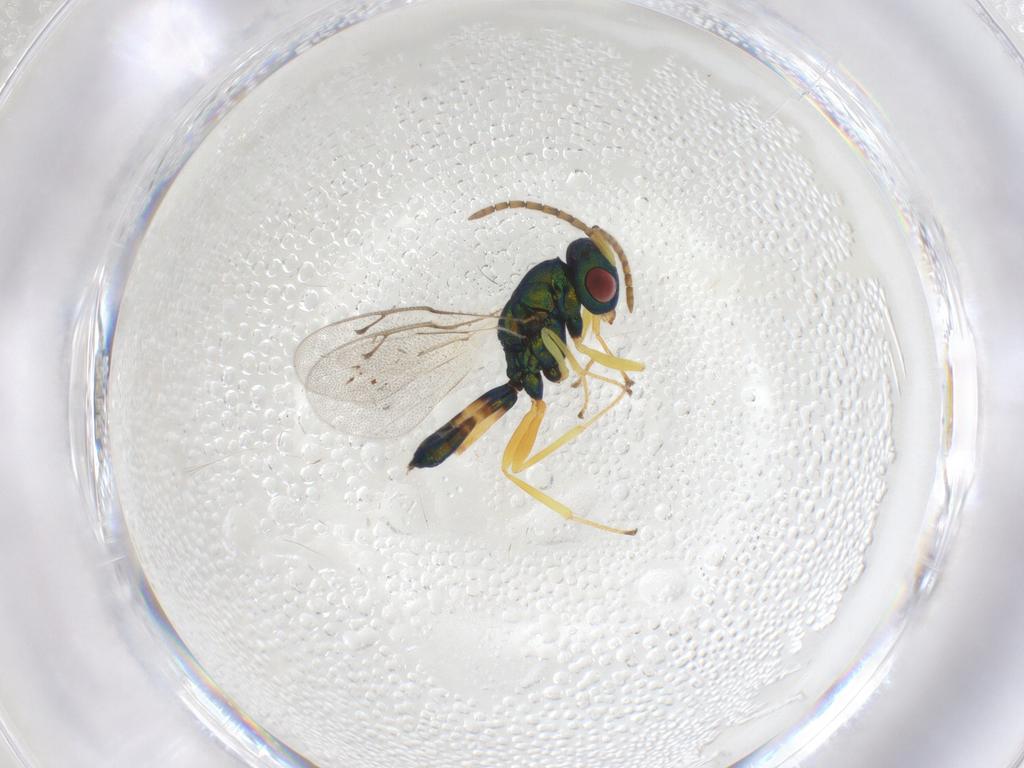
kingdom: Animalia
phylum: Arthropoda
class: Insecta
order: Hymenoptera
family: Pteromalidae
